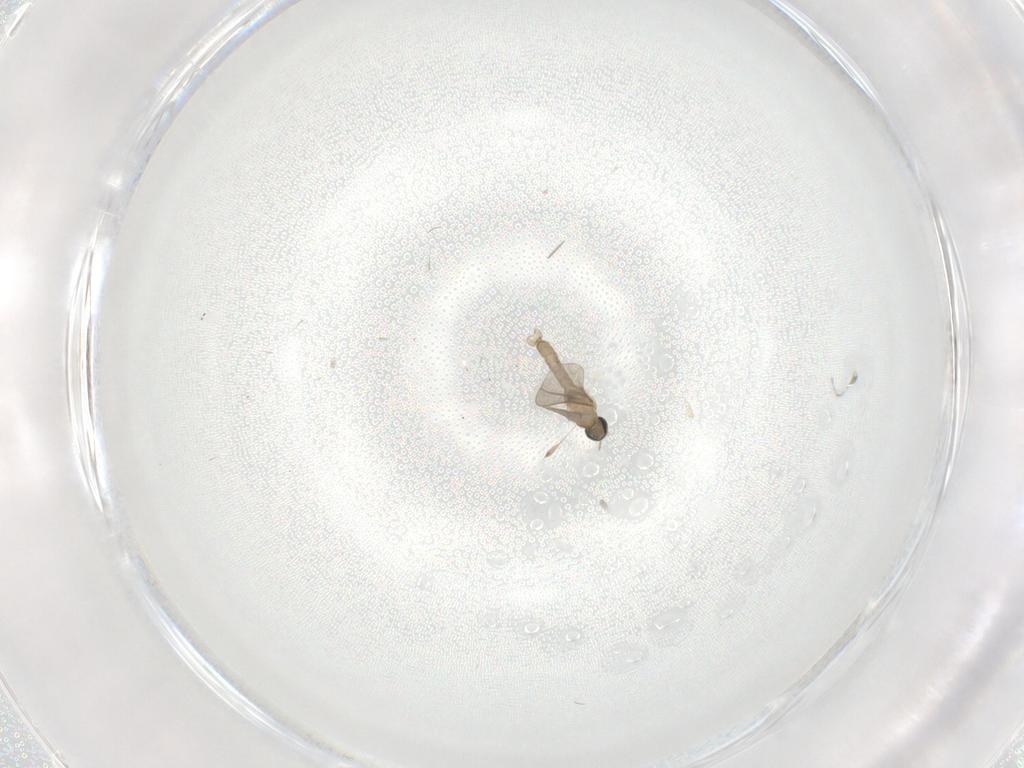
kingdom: Animalia
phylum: Arthropoda
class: Insecta
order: Diptera
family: Cecidomyiidae
